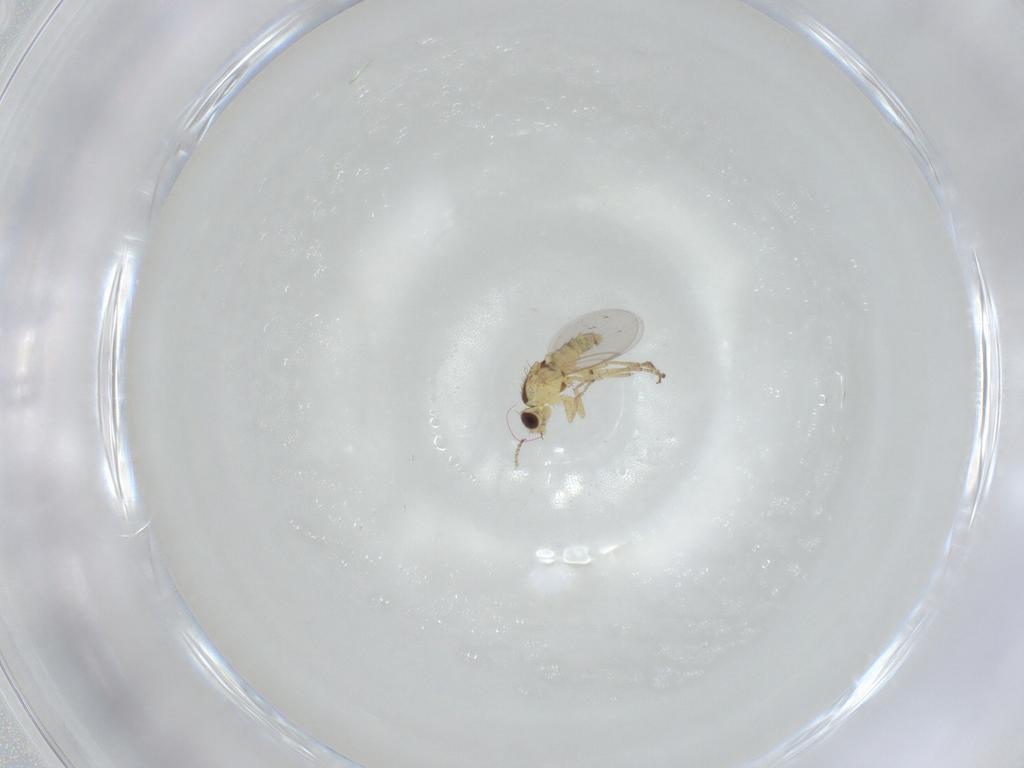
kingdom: Animalia
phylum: Arthropoda
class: Insecta
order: Diptera
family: Agromyzidae
